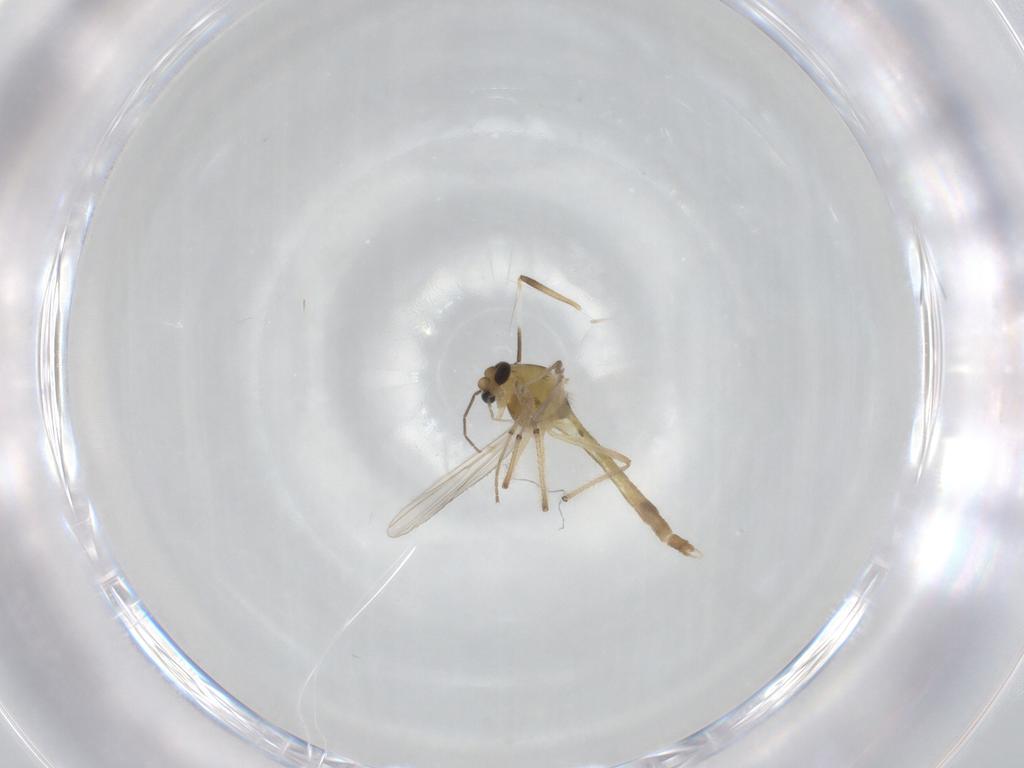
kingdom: Animalia
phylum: Arthropoda
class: Insecta
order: Diptera
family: Chironomidae
